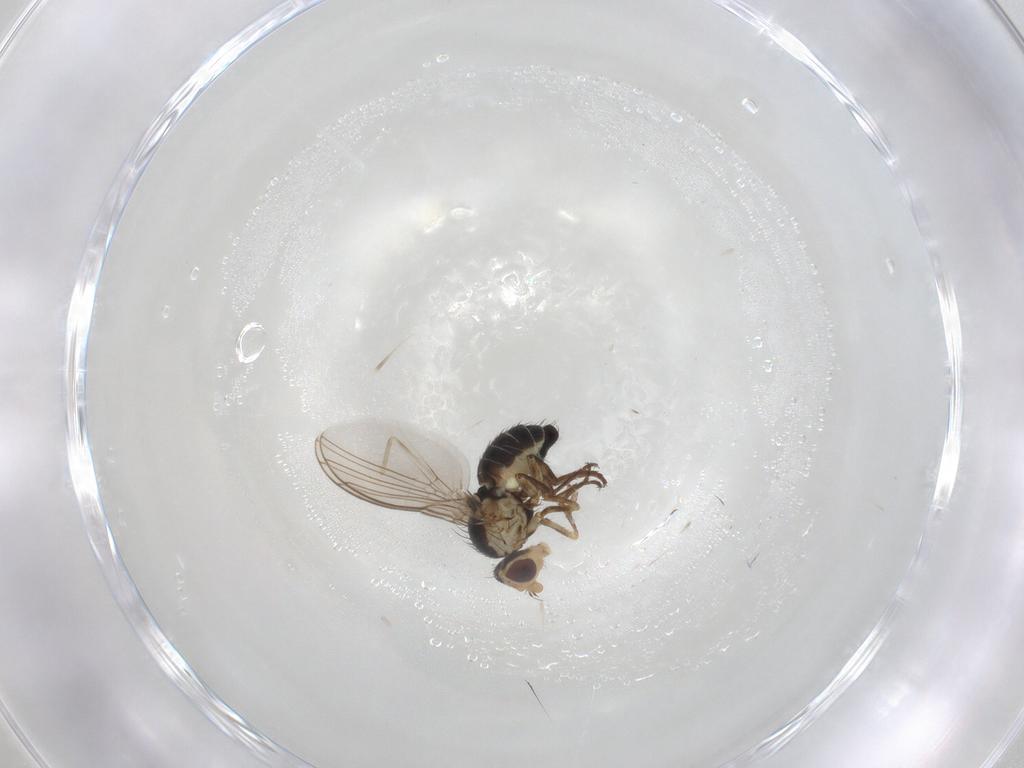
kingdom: Animalia
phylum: Arthropoda
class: Insecta
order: Diptera
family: Agromyzidae
